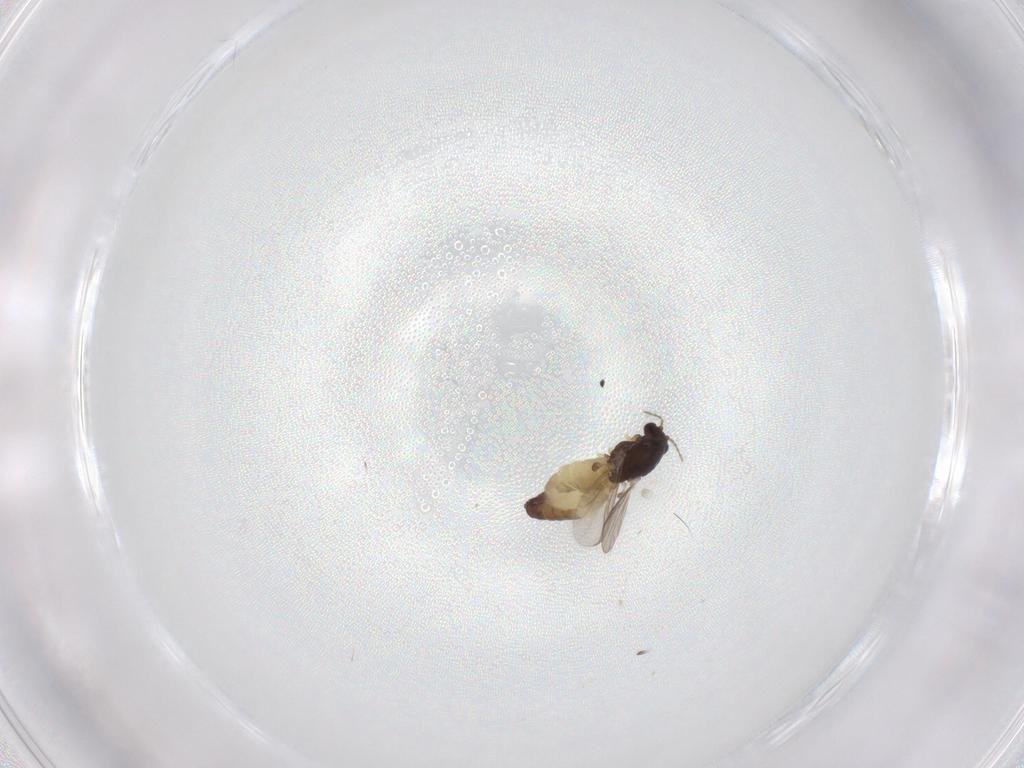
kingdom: Animalia
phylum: Arthropoda
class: Insecta
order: Diptera
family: Chironomidae
